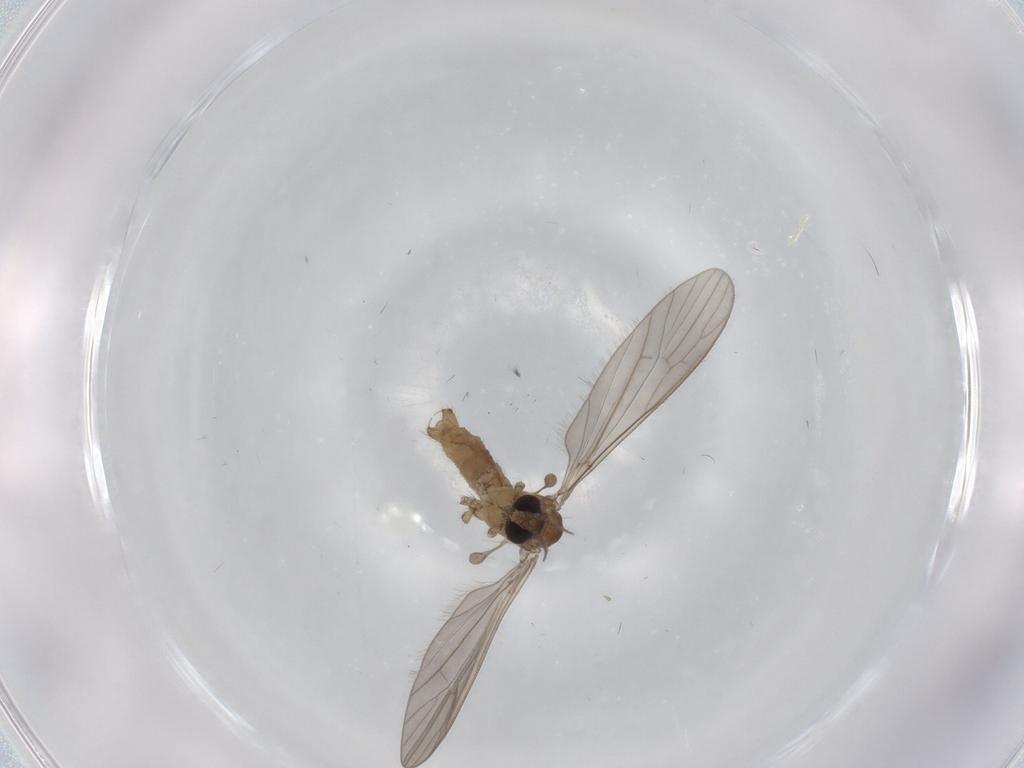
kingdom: Animalia
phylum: Arthropoda
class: Insecta
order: Diptera
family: Limoniidae
